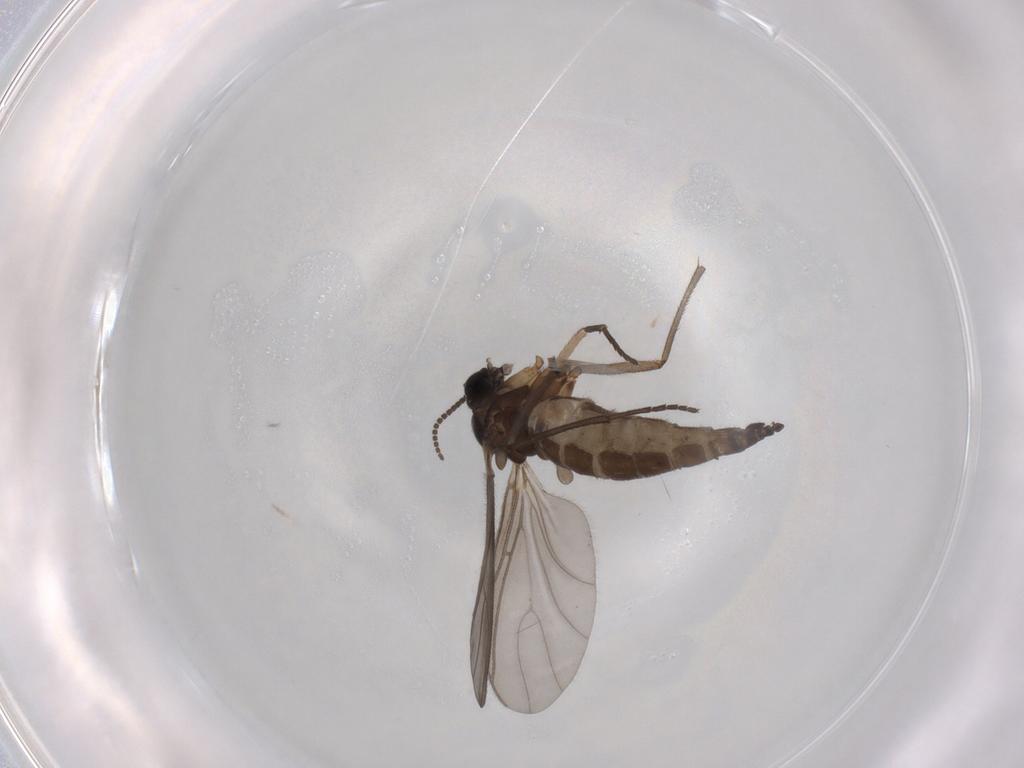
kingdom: Animalia
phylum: Arthropoda
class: Insecta
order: Diptera
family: Sciaridae
